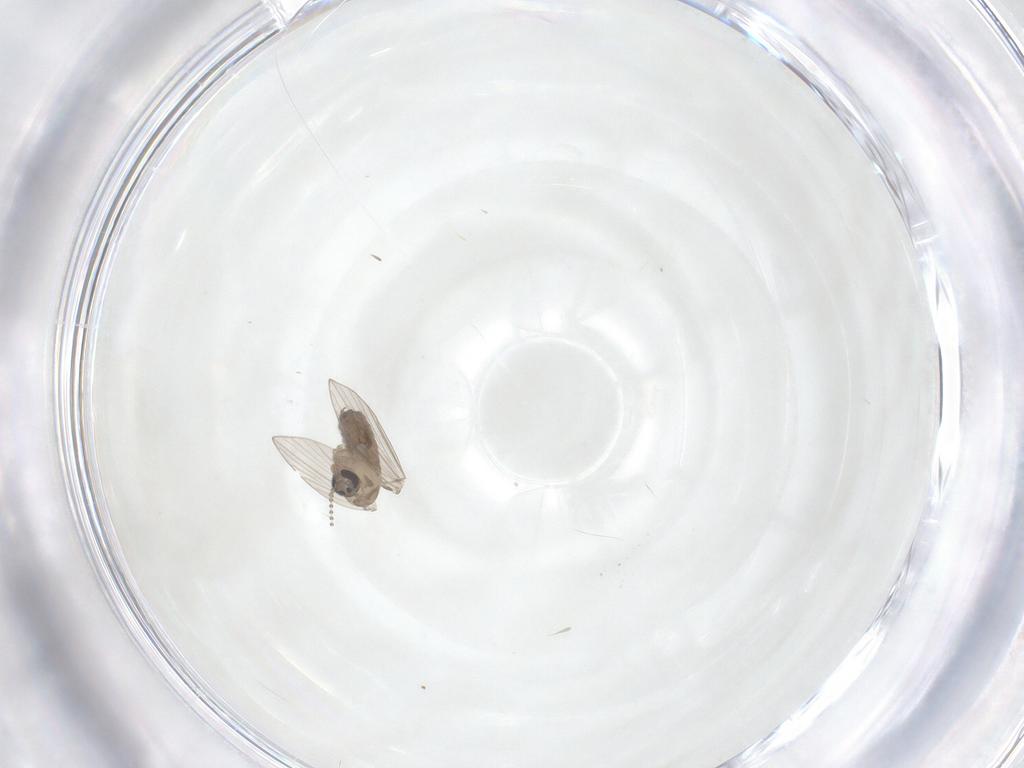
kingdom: Animalia
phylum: Arthropoda
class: Insecta
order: Diptera
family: Psychodidae
